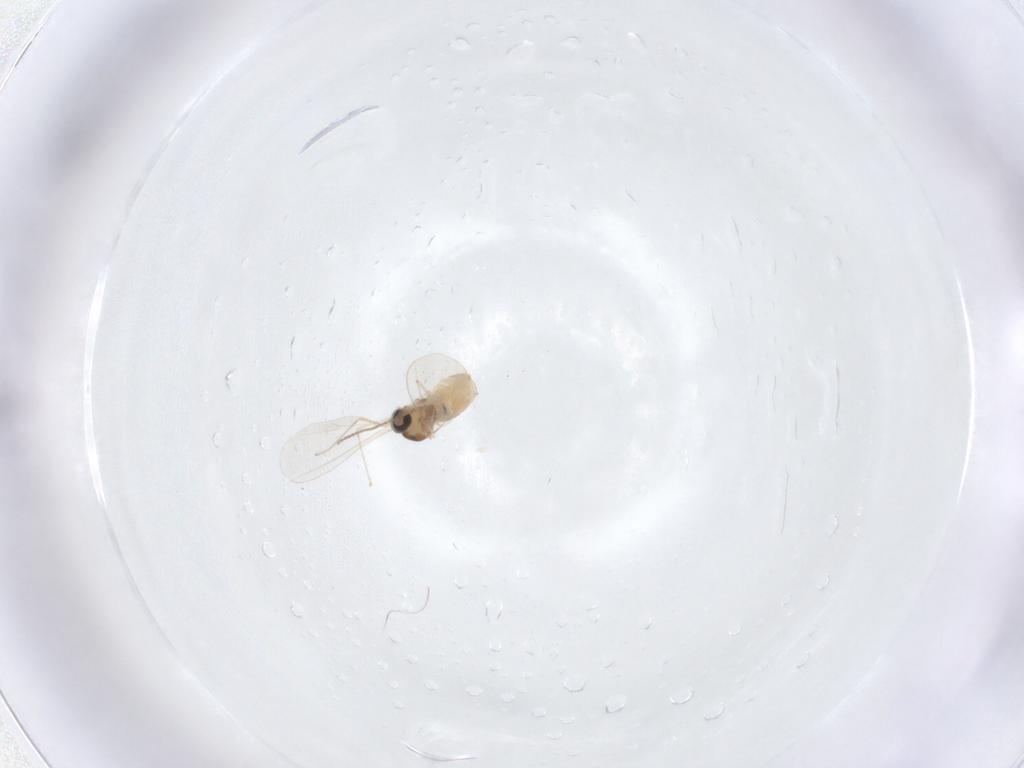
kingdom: Animalia
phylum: Arthropoda
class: Insecta
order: Diptera
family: Cecidomyiidae
